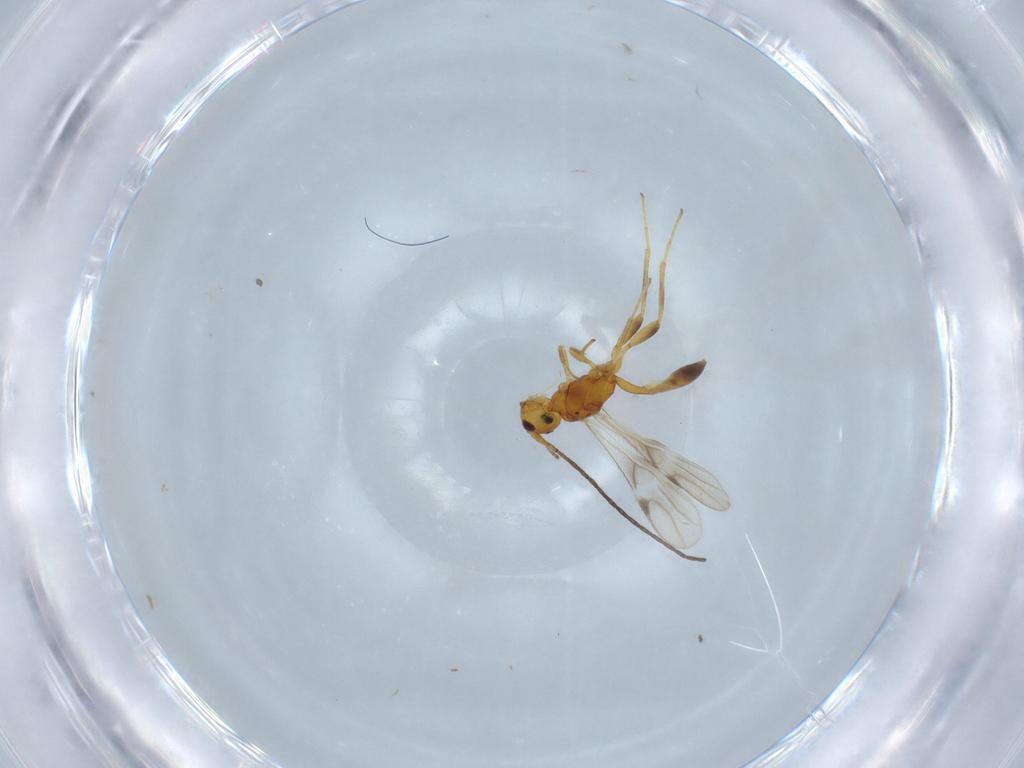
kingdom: Animalia
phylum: Arthropoda
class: Insecta
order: Hymenoptera
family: Braconidae
